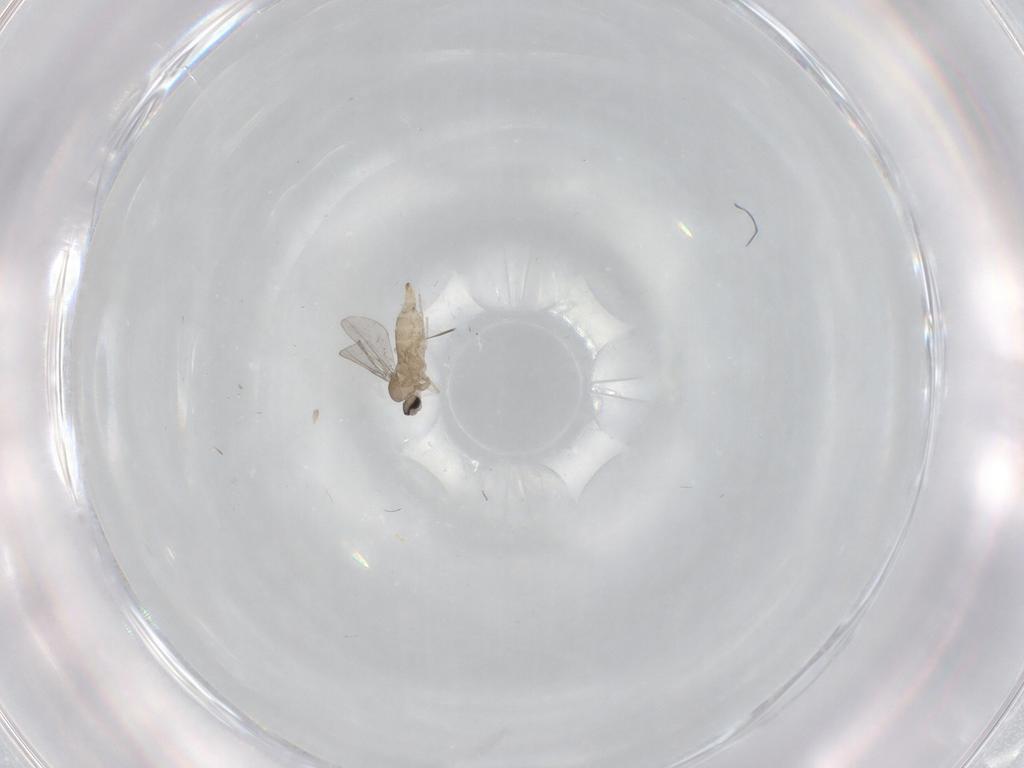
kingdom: Animalia
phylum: Arthropoda
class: Insecta
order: Diptera
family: Cecidomyiidae
